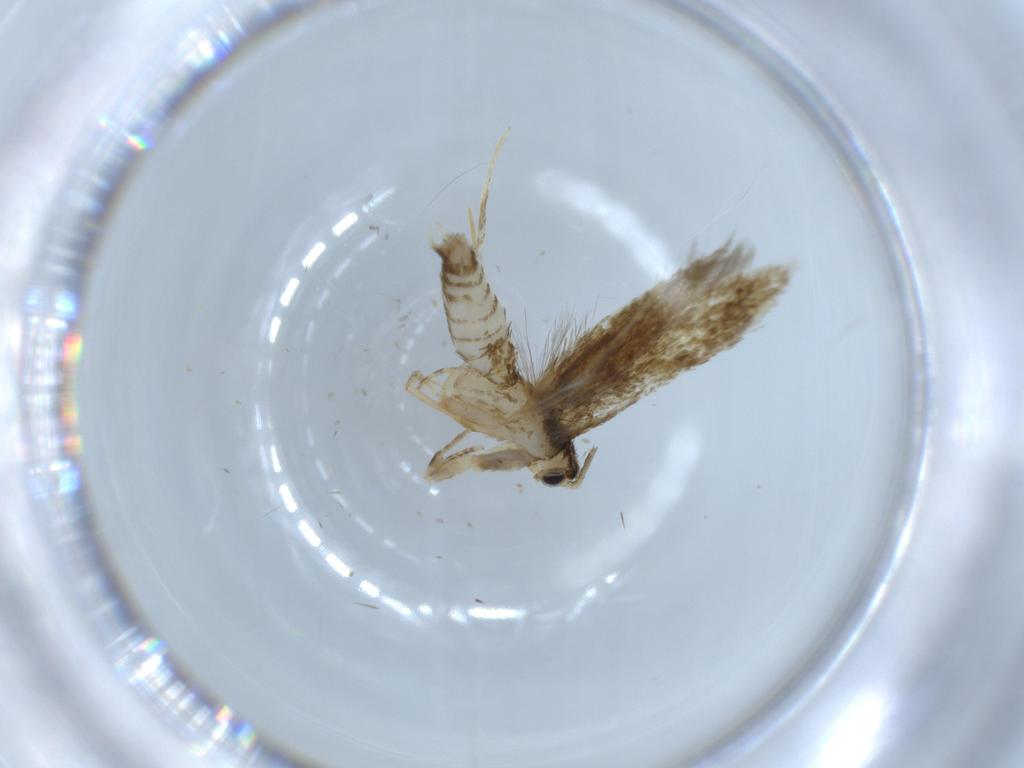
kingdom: Animalia
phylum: Arthropoda
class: Insecta
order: Lepidoptera
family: Gelechiidae
